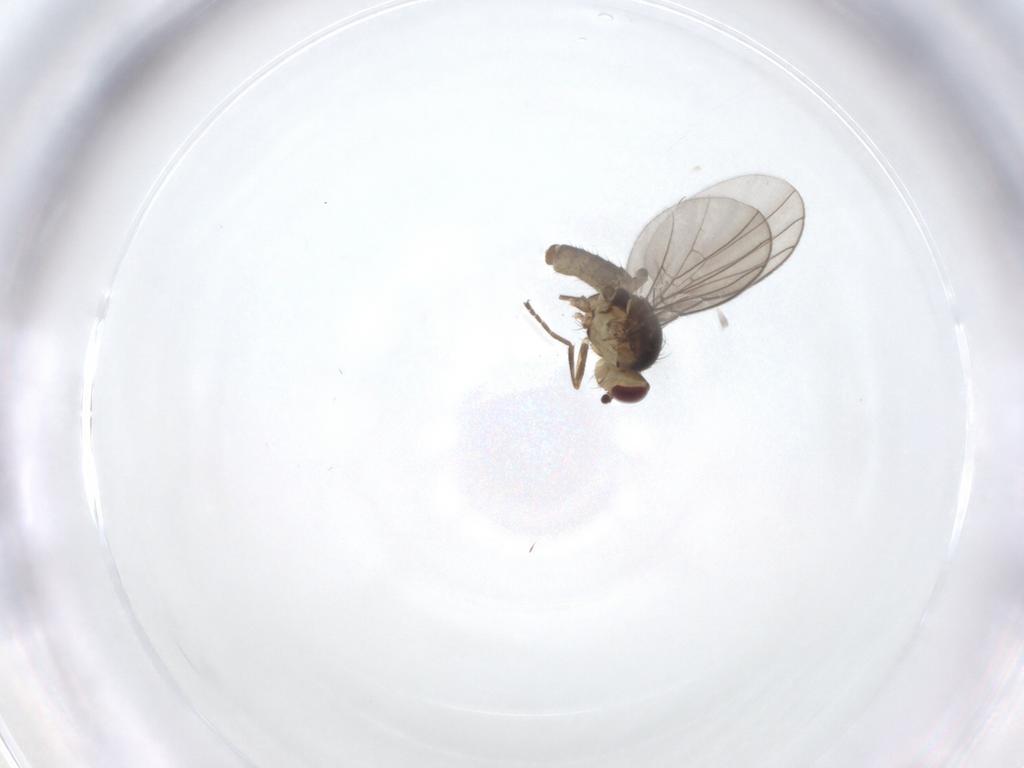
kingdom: Animalia
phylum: Arthropoda
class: Insecta
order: Diptera
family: Agromyzidae
